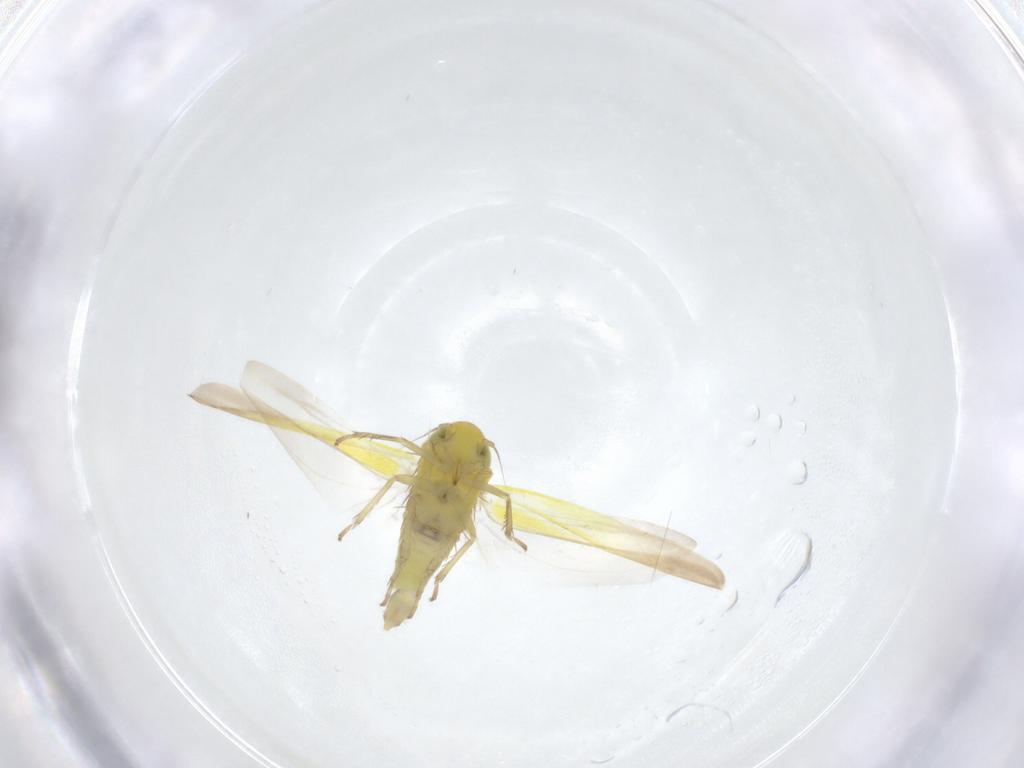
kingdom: Animalia
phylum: Arthropoda
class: Insecta
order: Hemiptera
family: Cicadellidae
